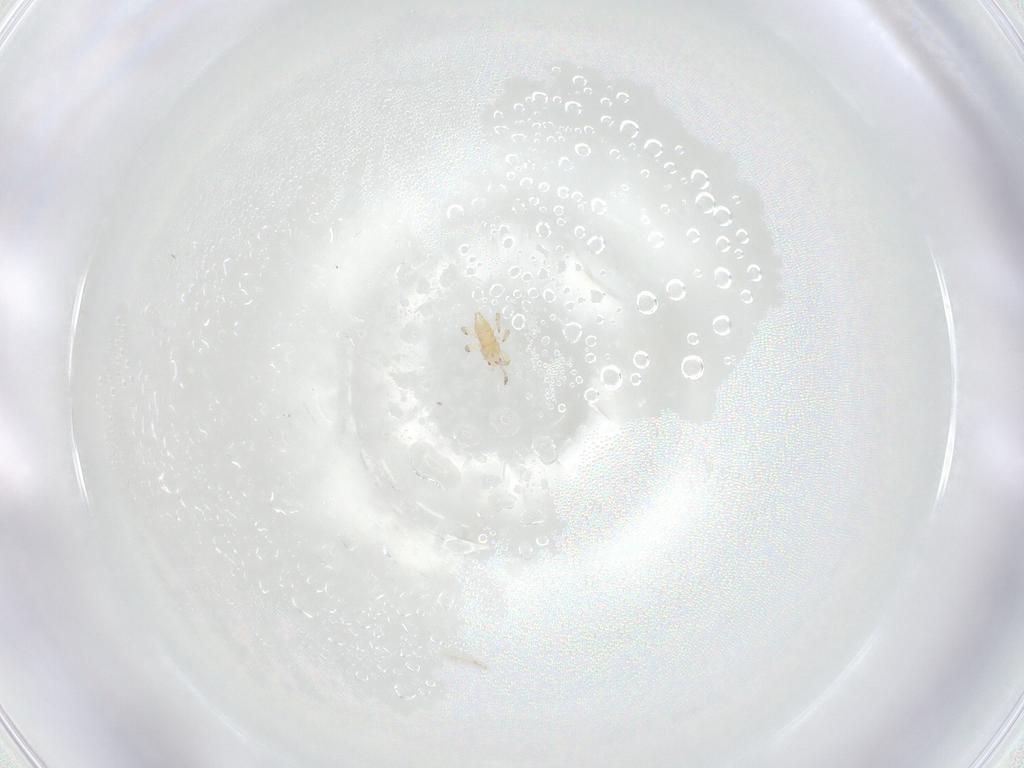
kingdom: Animalia
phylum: Arthropoda
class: Insecta
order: Thysanoptera
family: Aeolothripidae
